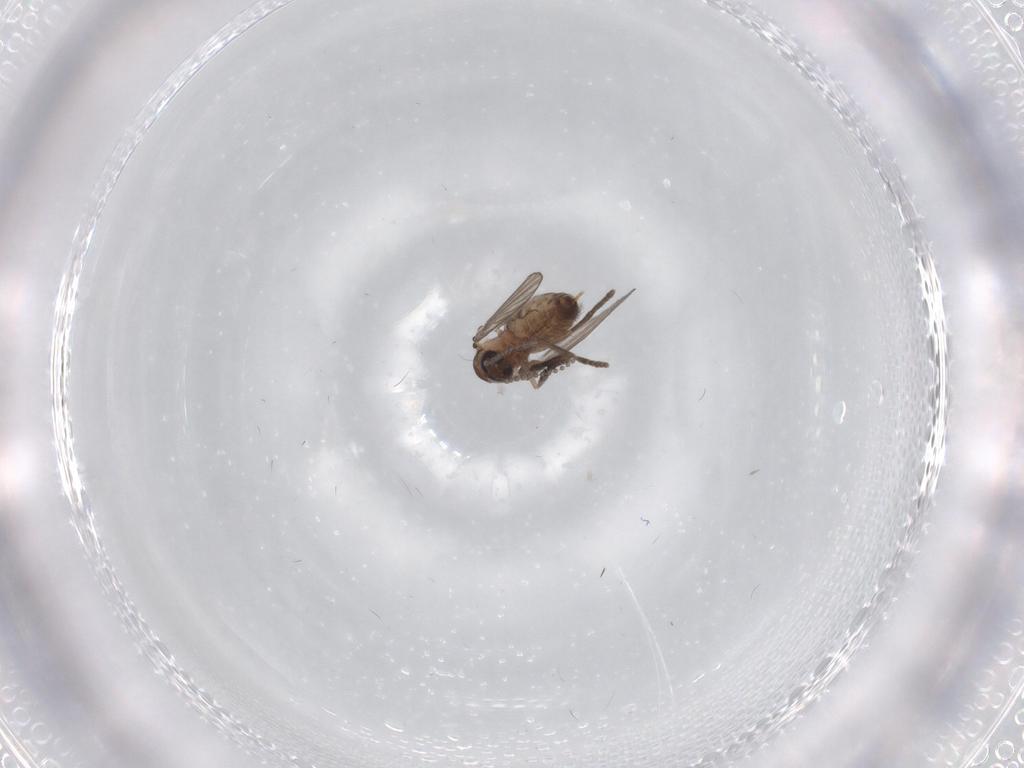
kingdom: Animalia
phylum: Arthropoda
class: Insecta
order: Diptera
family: Psychodidae
